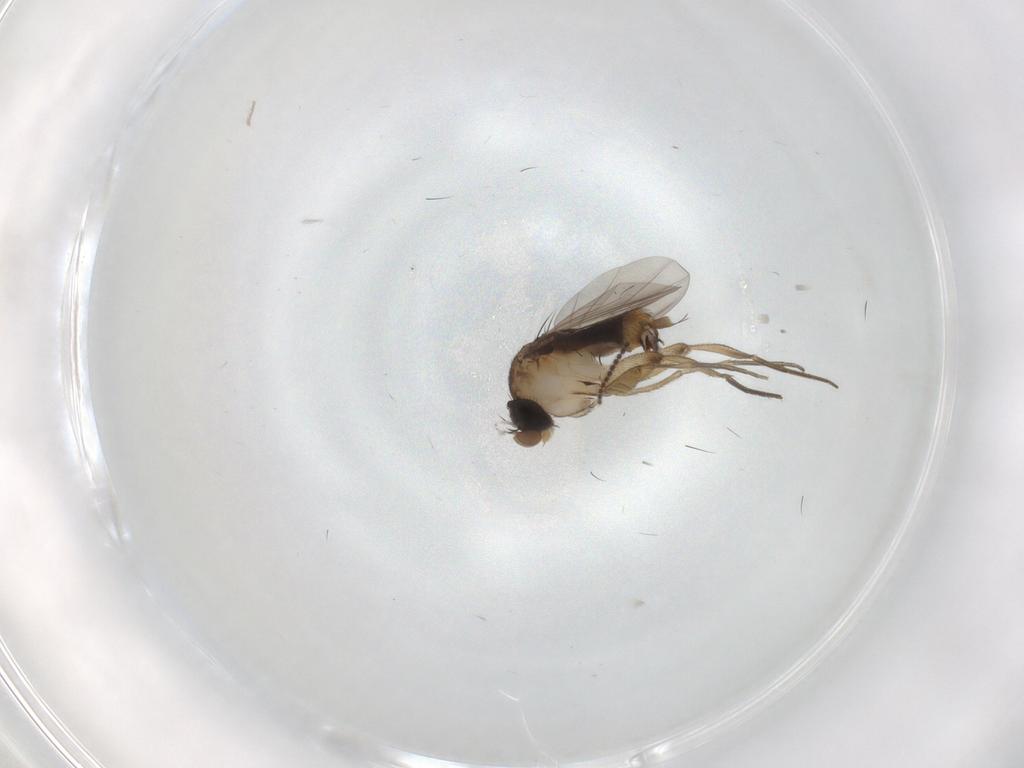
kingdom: Animalia
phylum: Arthropoda
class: Insecta
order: Diptera
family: Phoridae
